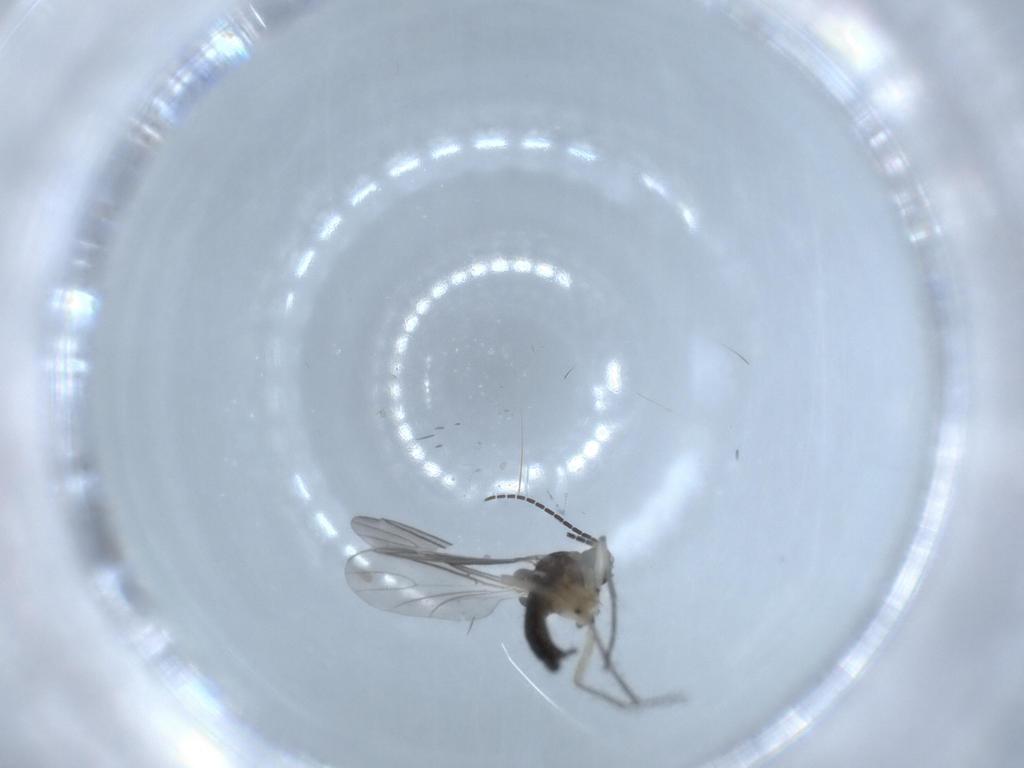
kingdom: Animalia
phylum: Arthropoda
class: Insecta
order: Diptera
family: Sciaridae
